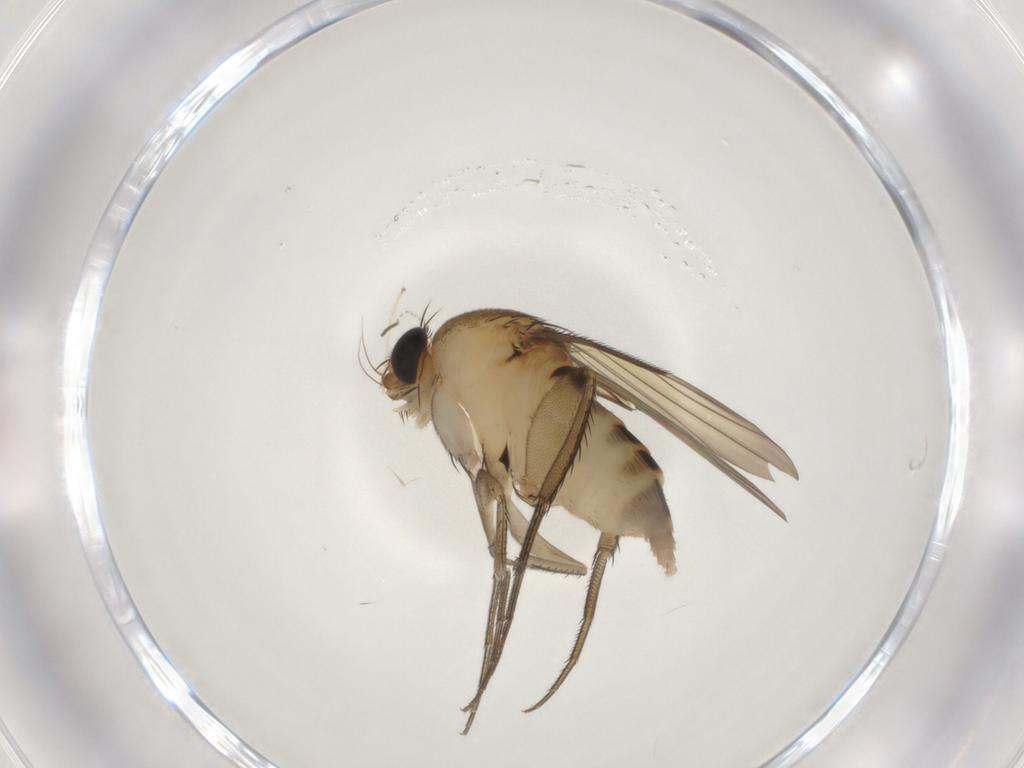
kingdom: Animalia
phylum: Arthropoda
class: Insecta
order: Diptera
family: Phoridae
